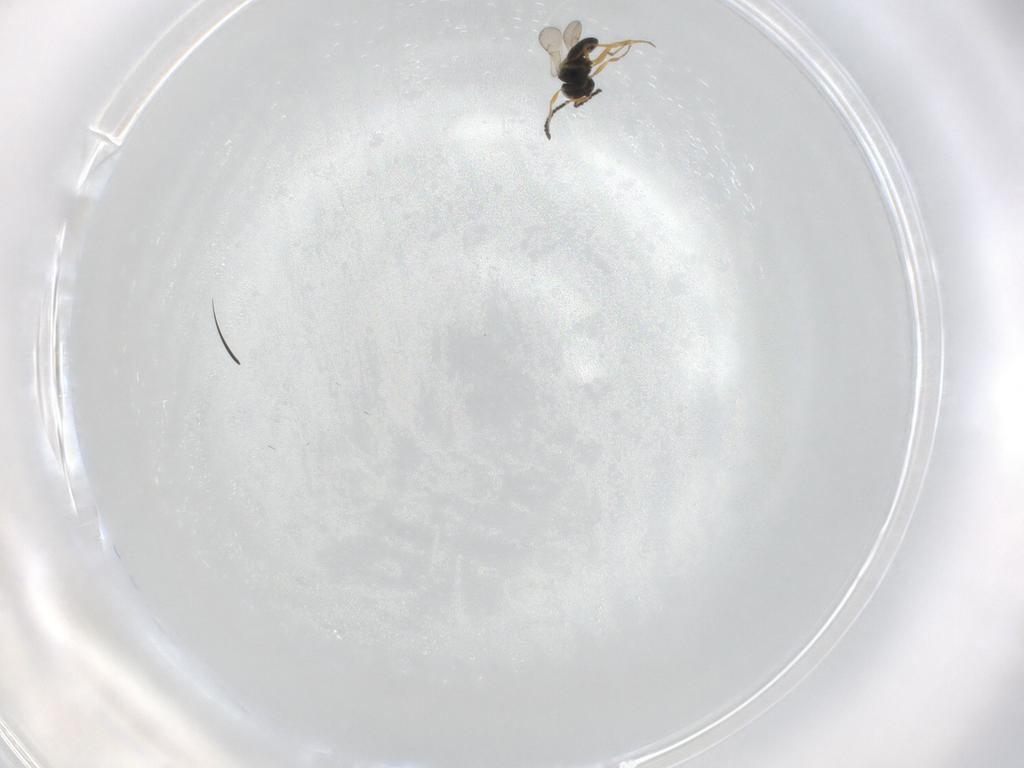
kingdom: Animalia
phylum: Arthropoda
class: Insecta
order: Hymenoptera
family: Scelionidae
